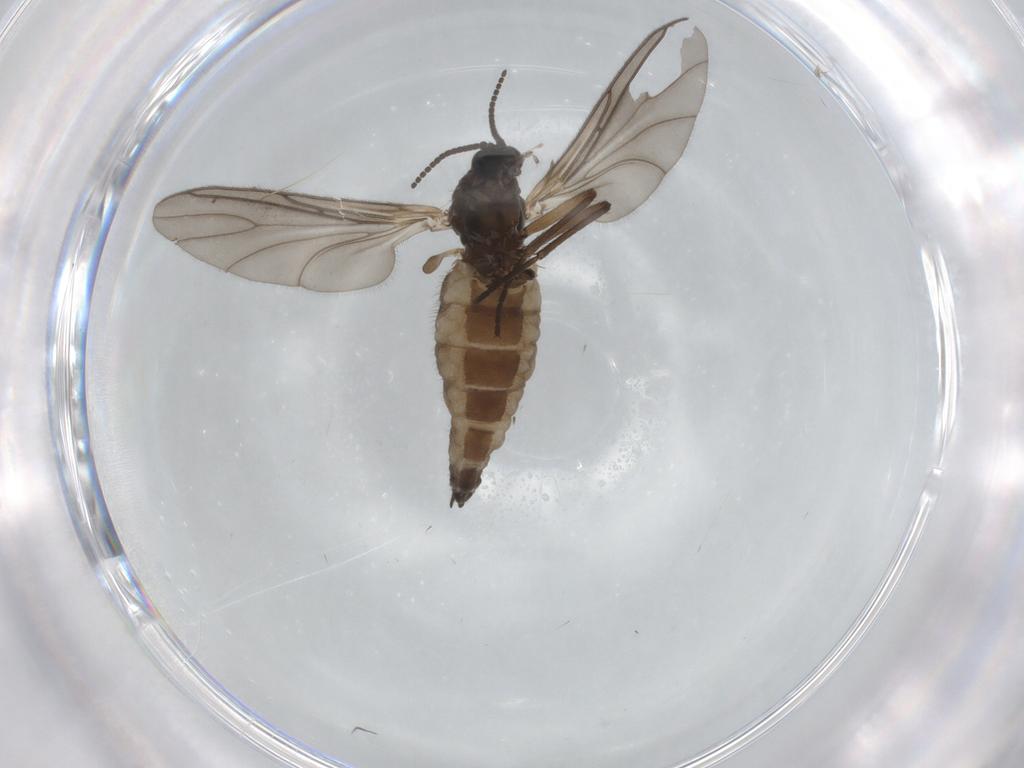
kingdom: Animalia
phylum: Arthropoda
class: Insecta
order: Diptera
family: Sciaridae
